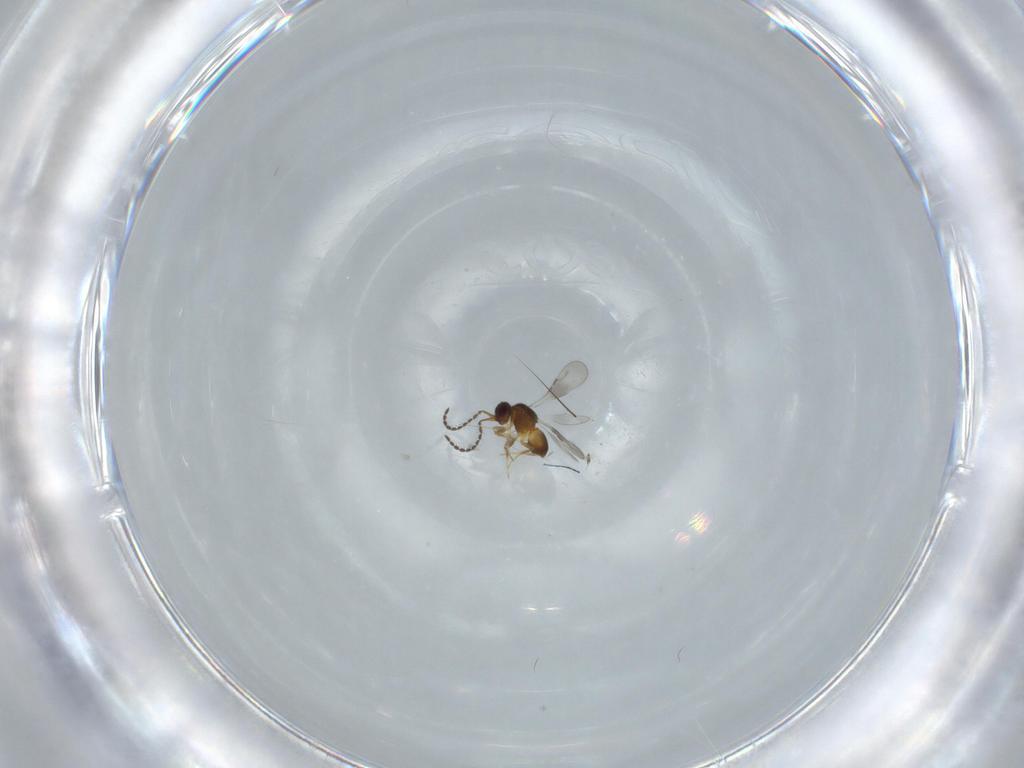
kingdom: Animalia
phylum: Arthropoda
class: Insecta
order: Hymenoptera
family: Ceraphronidae
